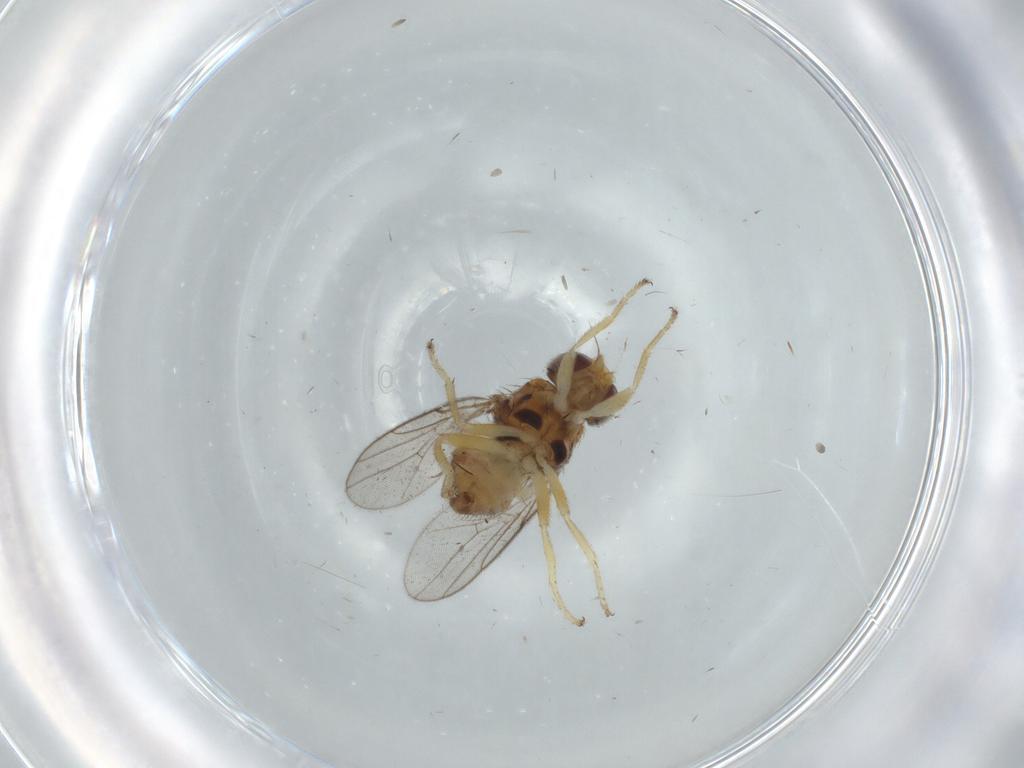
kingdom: Animalia
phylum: Arthropoda
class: Insecta
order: Diptera
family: Chloropidae
